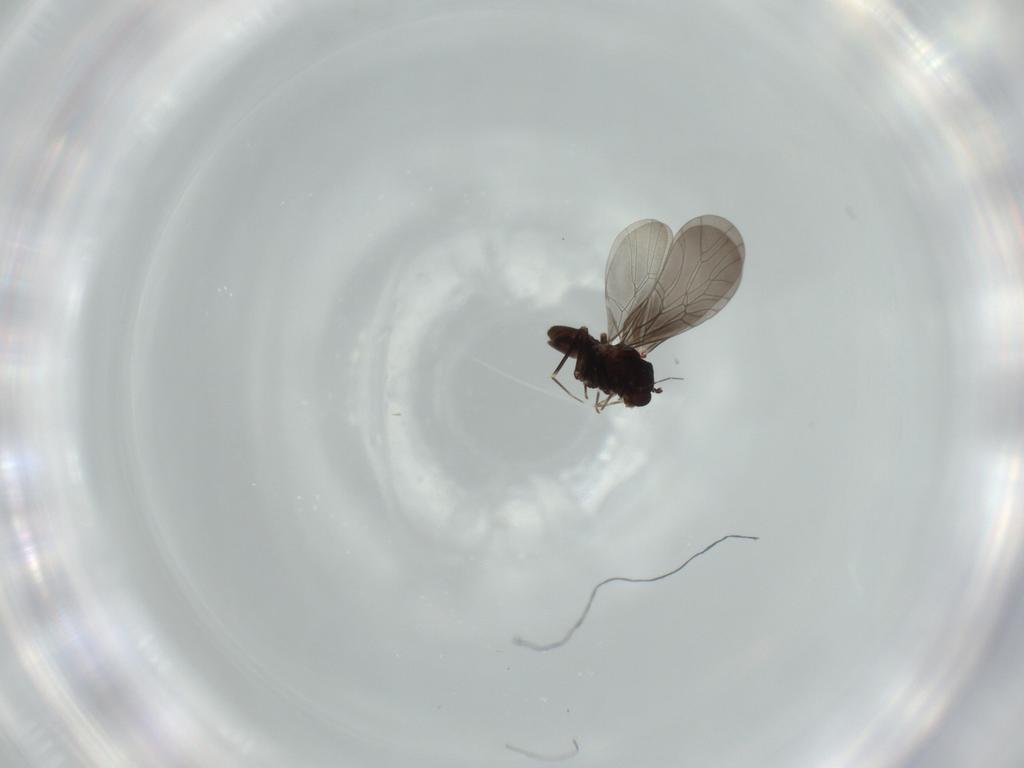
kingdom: Animalia
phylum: Arthropoda
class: Insecta
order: Psocodea
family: Lepidopsocidae
